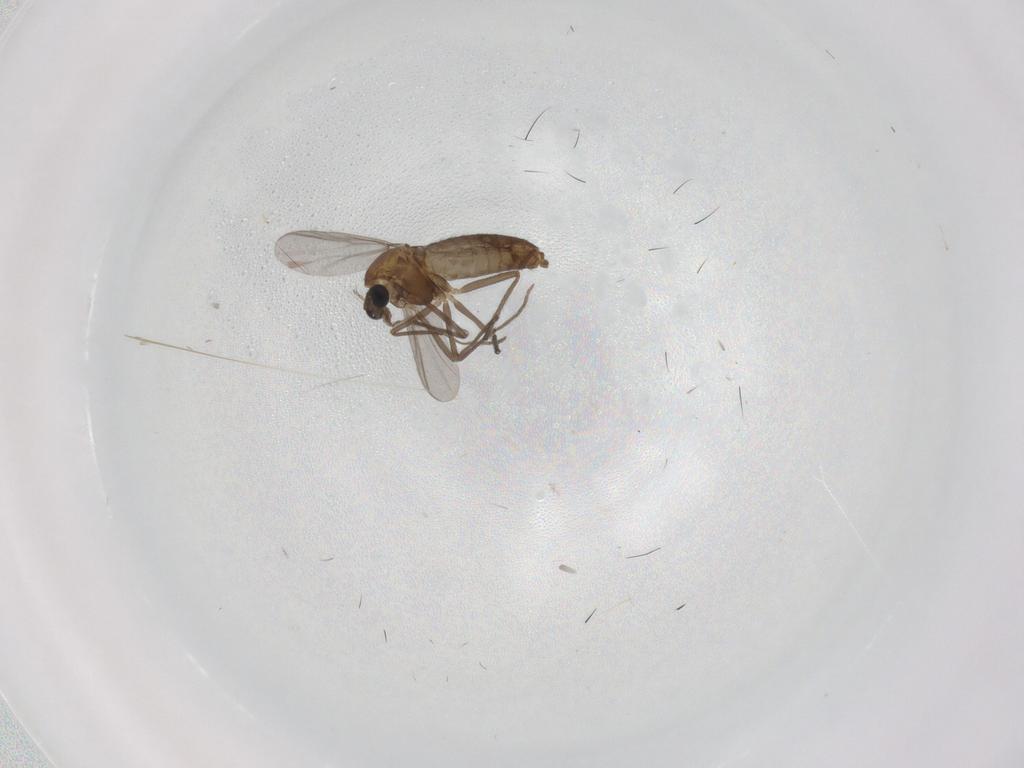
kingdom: Animalia
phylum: Arthropoda
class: Insecta
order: Diptera
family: Chironomidae
